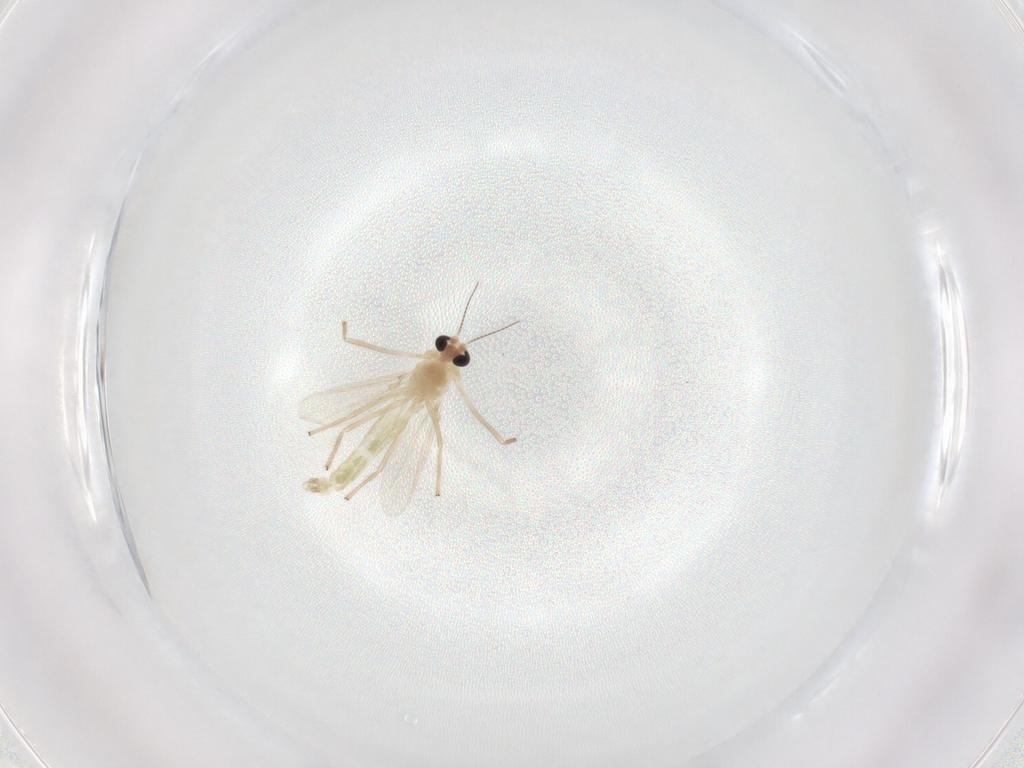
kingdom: Animalia
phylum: Arthropoda
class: Insecta
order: Diptera
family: Chironomidae
